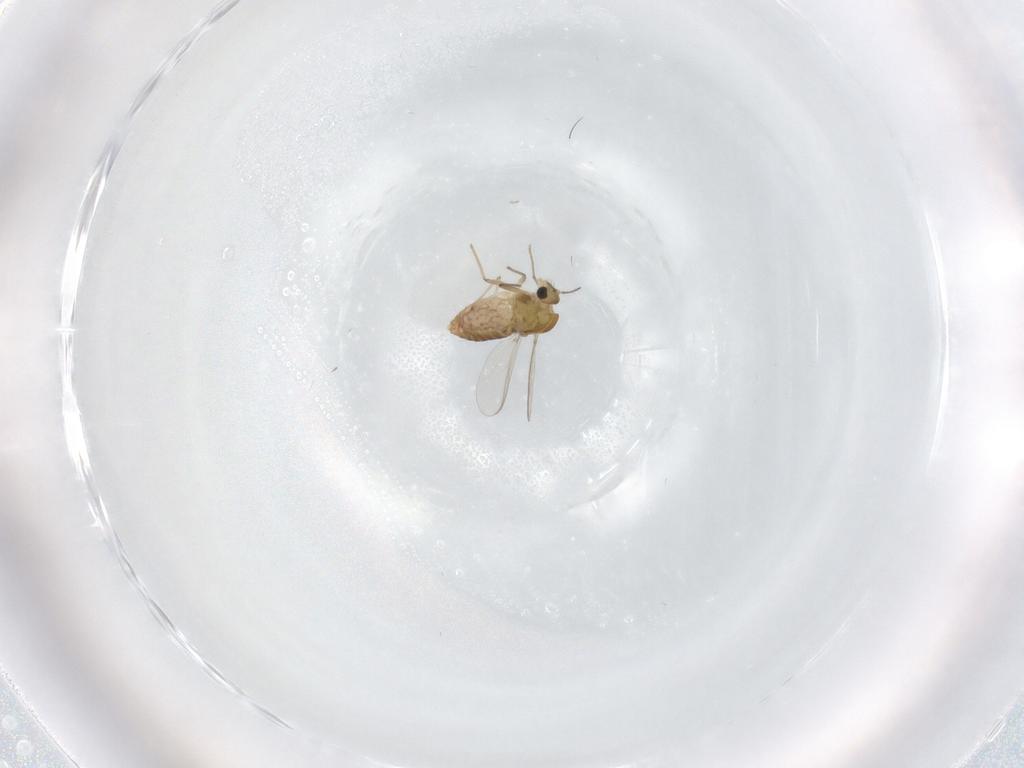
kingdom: Animalia
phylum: Arthropoda
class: Insecta
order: Diptera
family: Chironomidae
